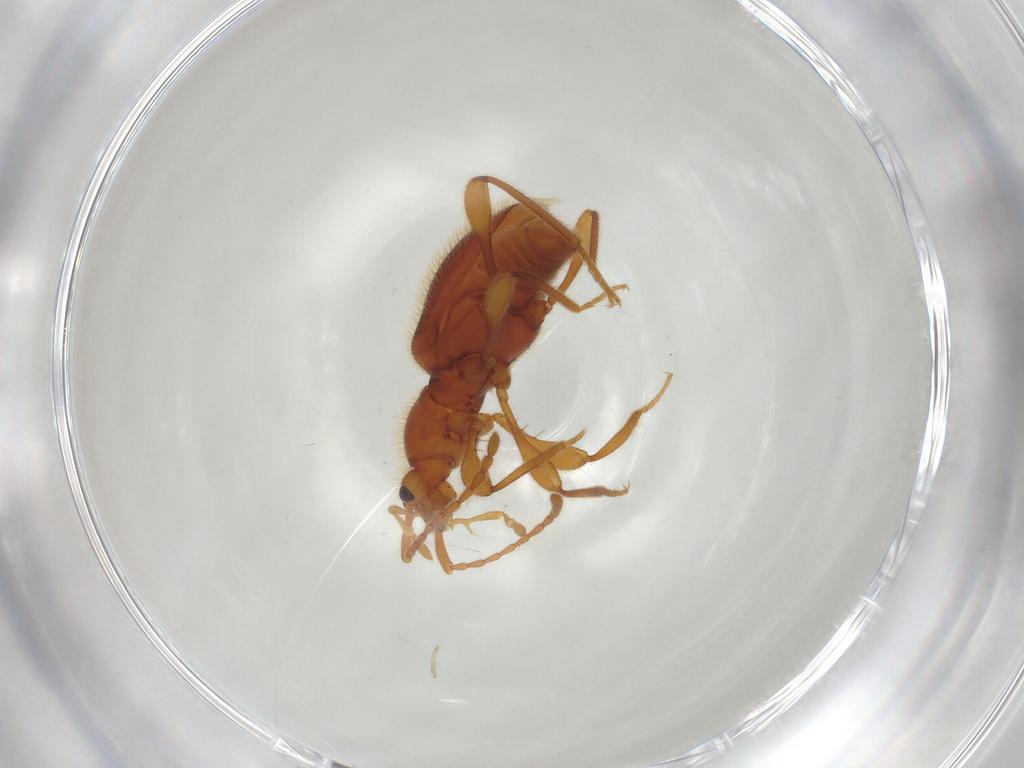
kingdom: Animalia
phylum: Arthropoda
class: Insecta
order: Coleoptera
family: Staphylinidae
